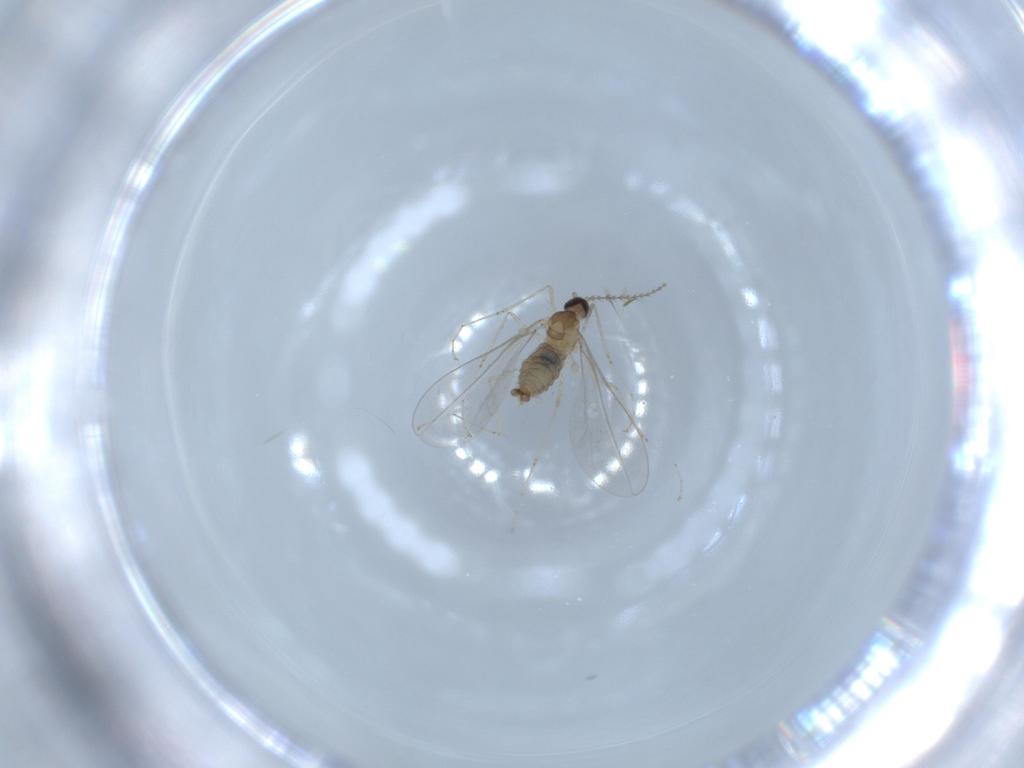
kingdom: Animalia
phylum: Arthropoda
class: Insecta
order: Diptera
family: Cecidomyiidae
